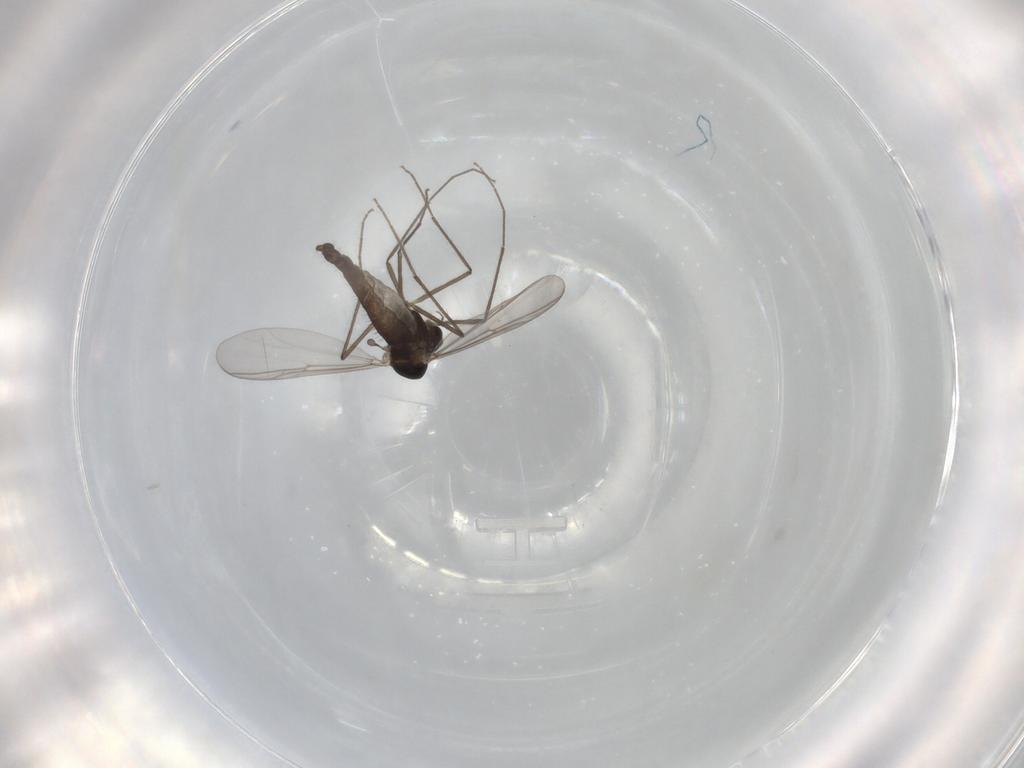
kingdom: Animalia
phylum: Arthropoda
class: Insecta
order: Diptera
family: Chironomidae
